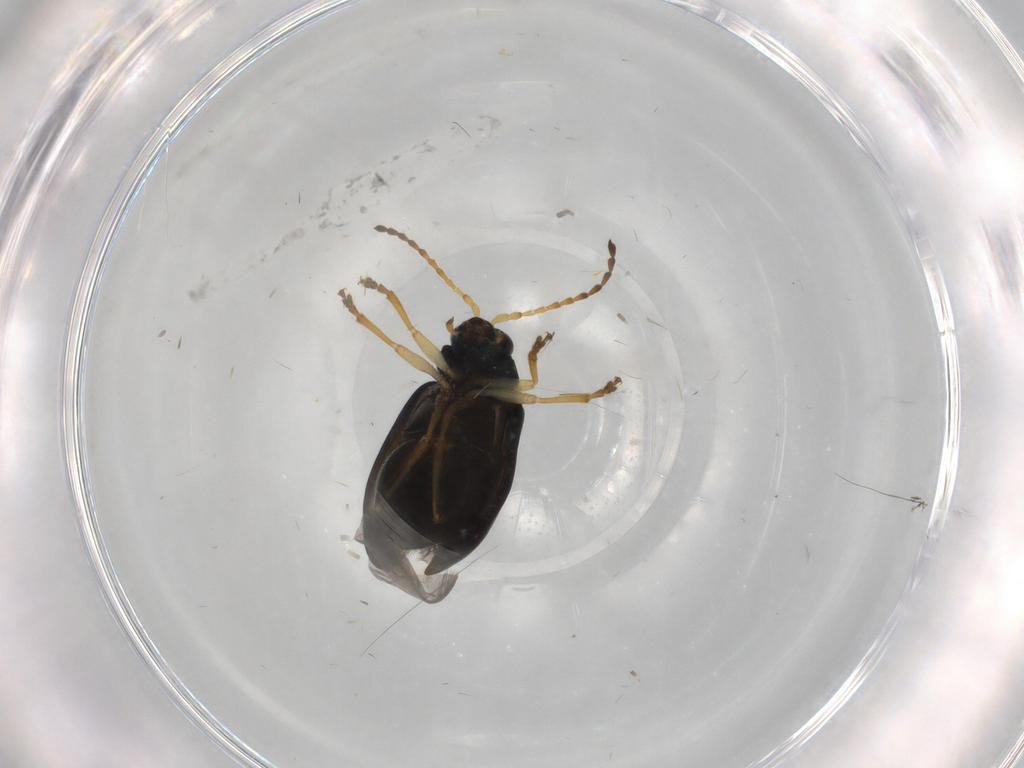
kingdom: Animalia
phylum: Arthropoda
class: Insecta
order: Coleoptera
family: Chrysomelidae
